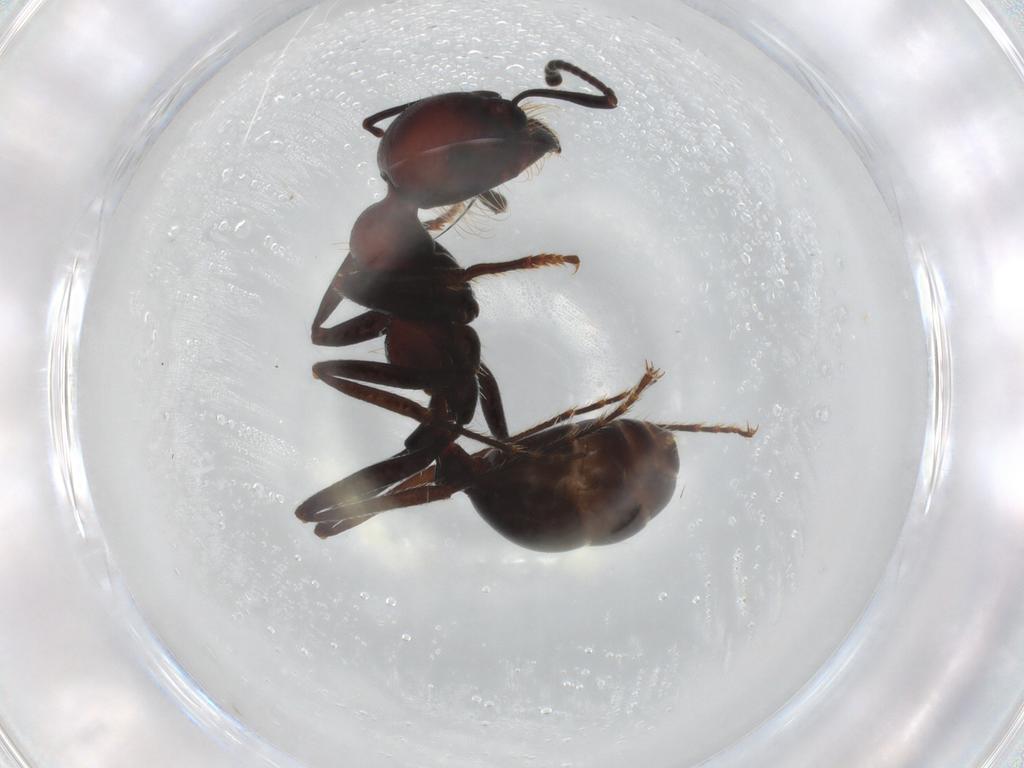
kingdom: Animalia
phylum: Arthropoda
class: Insecta
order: Hymenoptera
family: Formicidae
